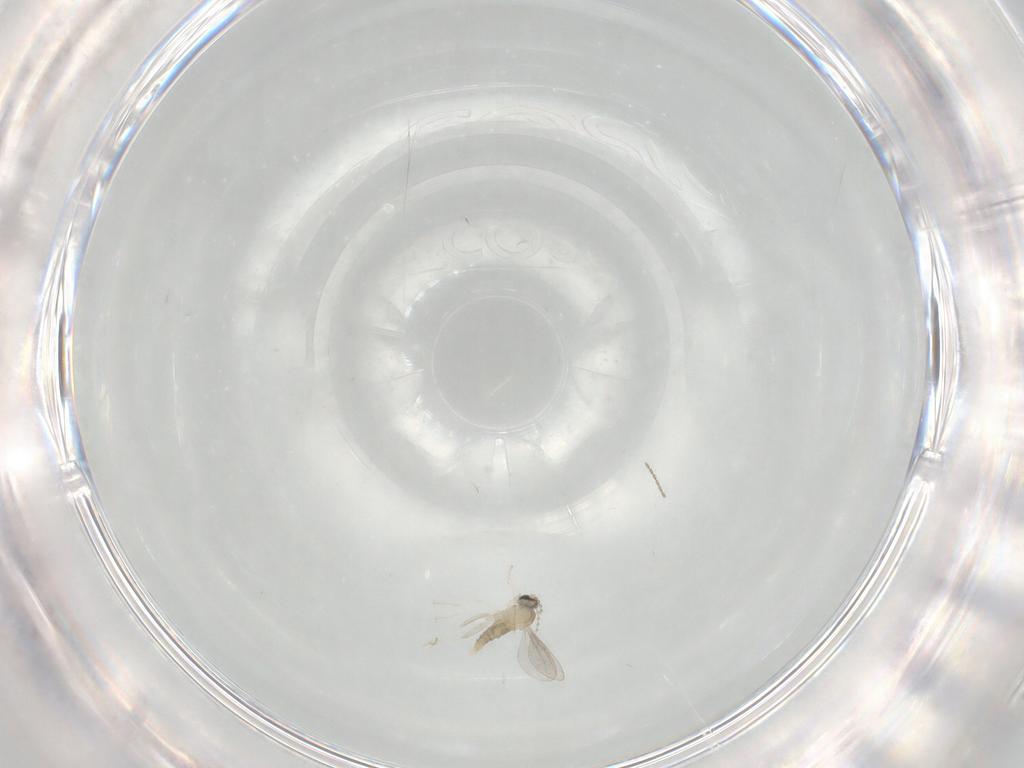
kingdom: Animalia
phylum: Arthropoda
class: Insecta
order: Diptera
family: Cecidomyiidae
